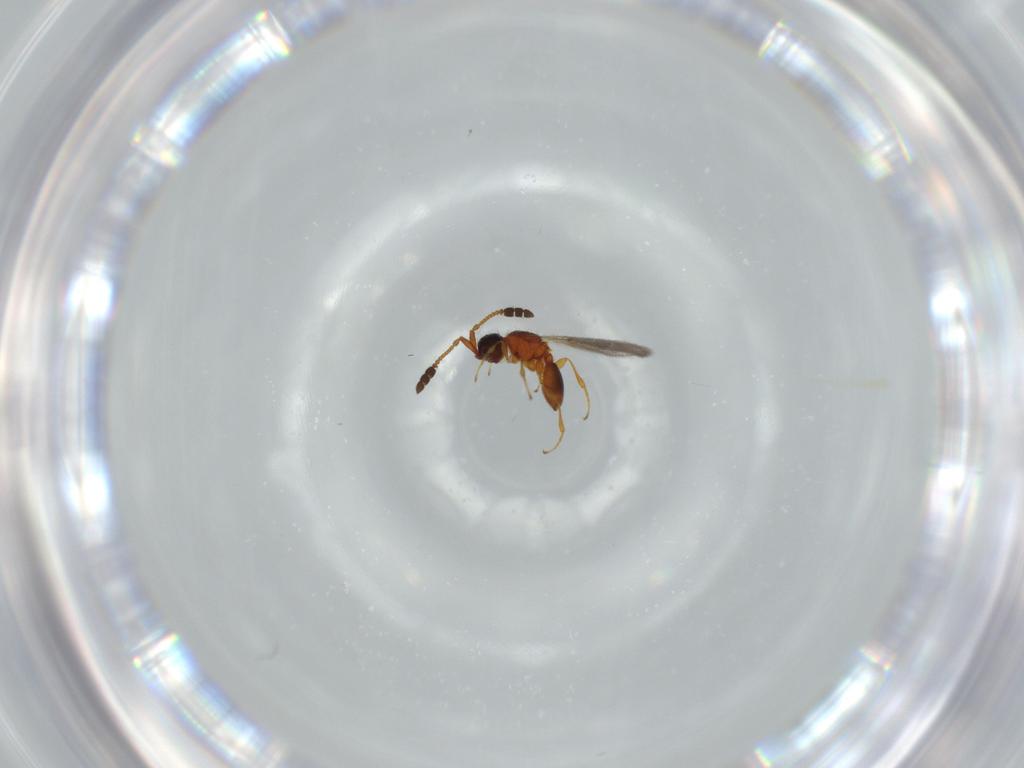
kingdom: Animalia
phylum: Arthropoda
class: Insecta
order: Hymenoptera
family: Diapriidae
